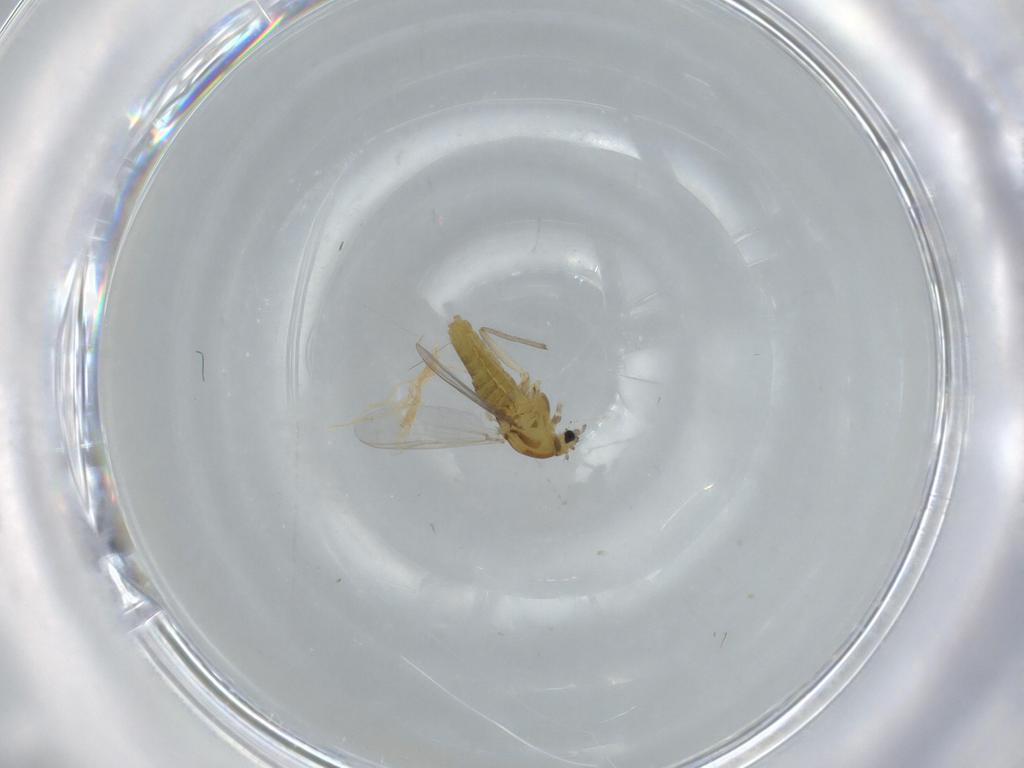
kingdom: Animalia
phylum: Arthropoda
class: Insecta
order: Diptera
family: Chironomidae
